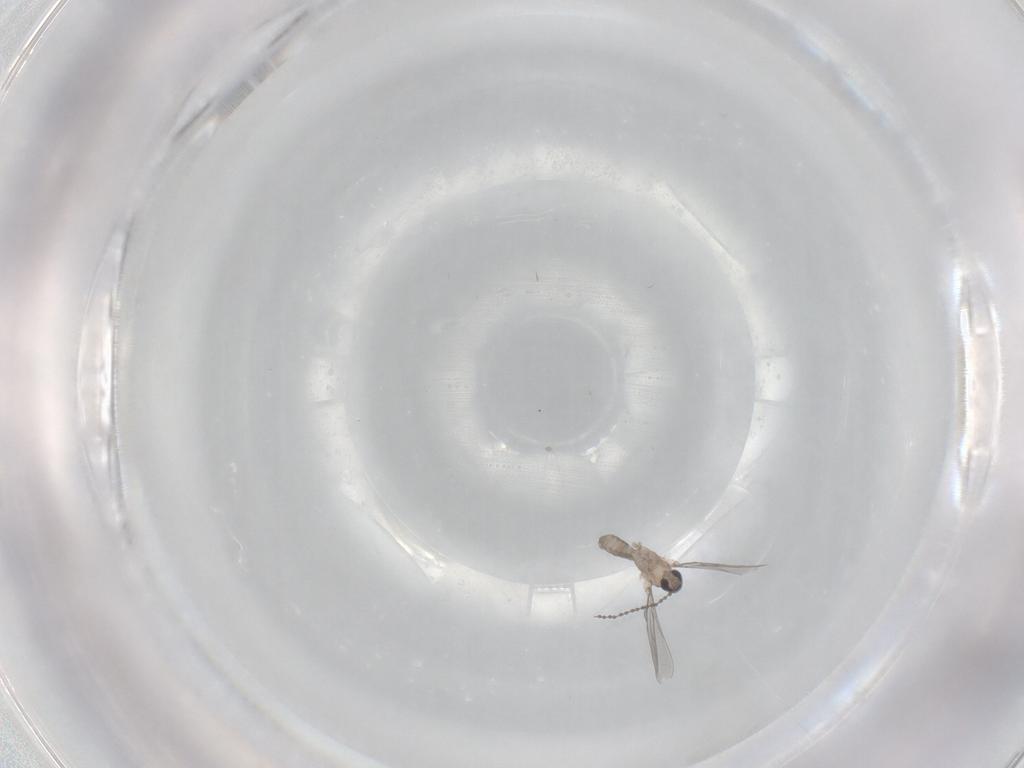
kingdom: Animalia
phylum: Arthropoda
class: Insecta
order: Diptera
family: Cecidomyiidae
